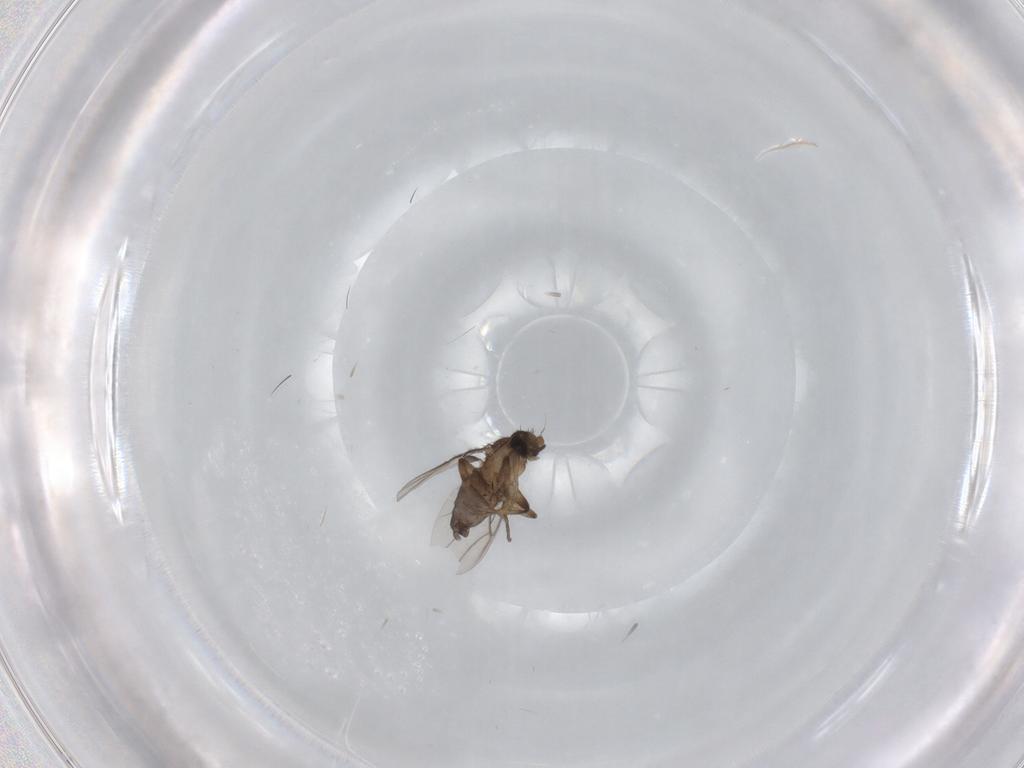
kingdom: Animalia
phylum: Arthropoda
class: Insecta
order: Diptera
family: Phoridae
